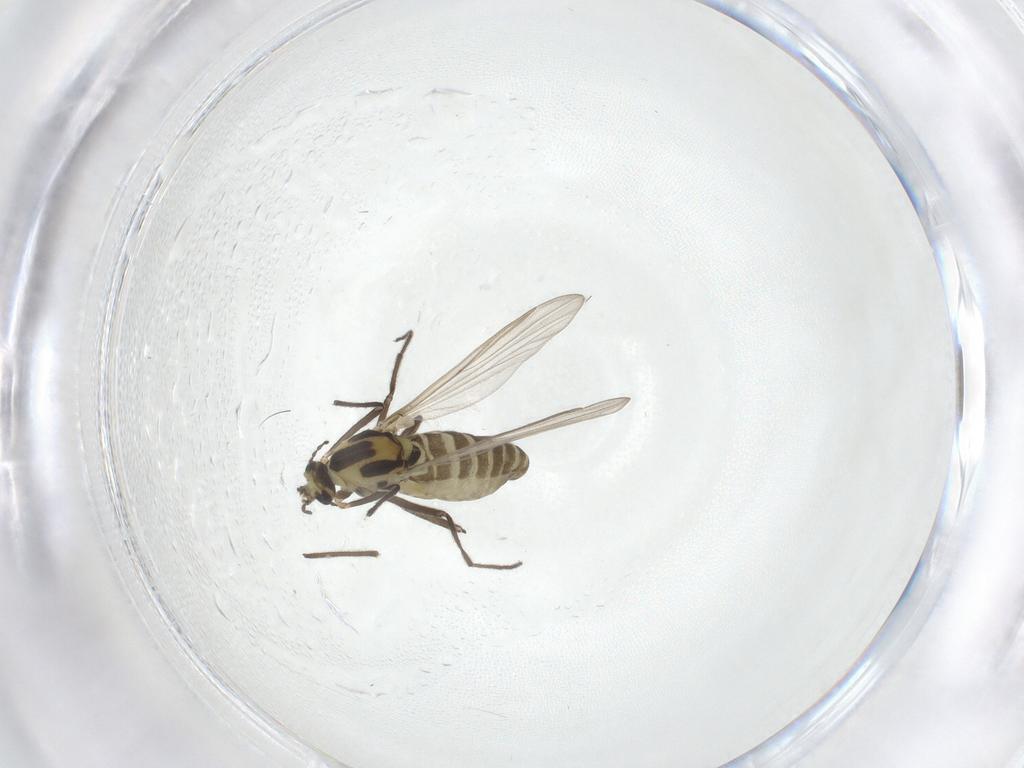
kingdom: Animalia
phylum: Arthropoda
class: Insecta
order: Diptera
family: Chironomidae
